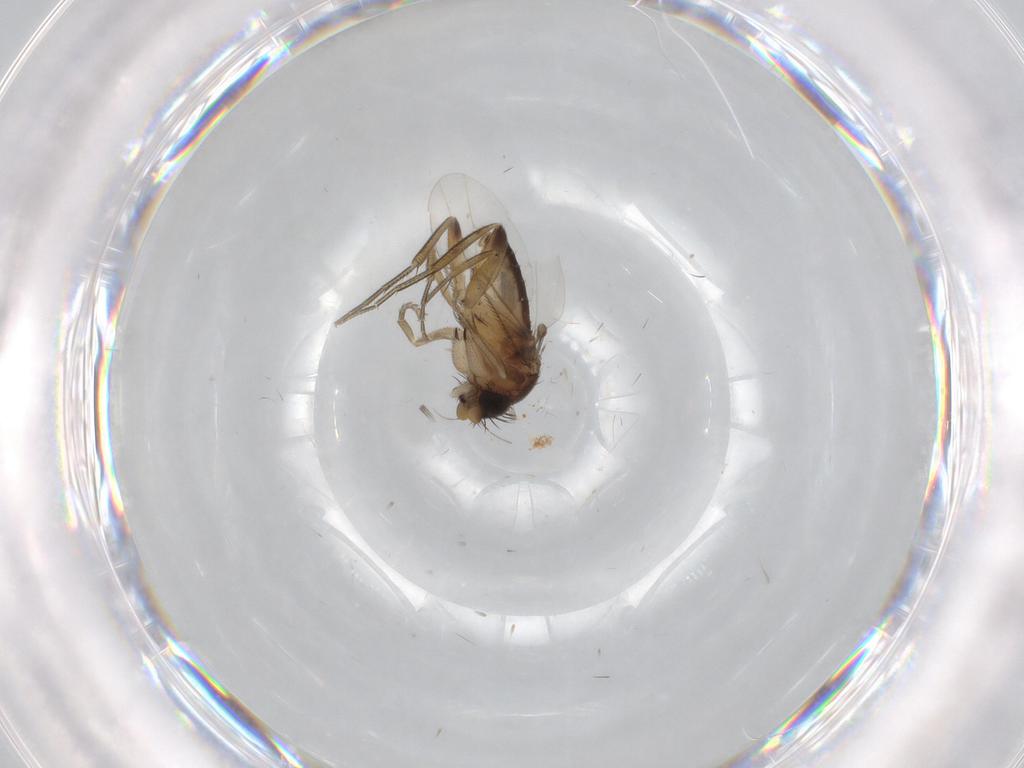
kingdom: Animalia
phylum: Arthropoda
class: Insecta
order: Diptera
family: Phoridae
